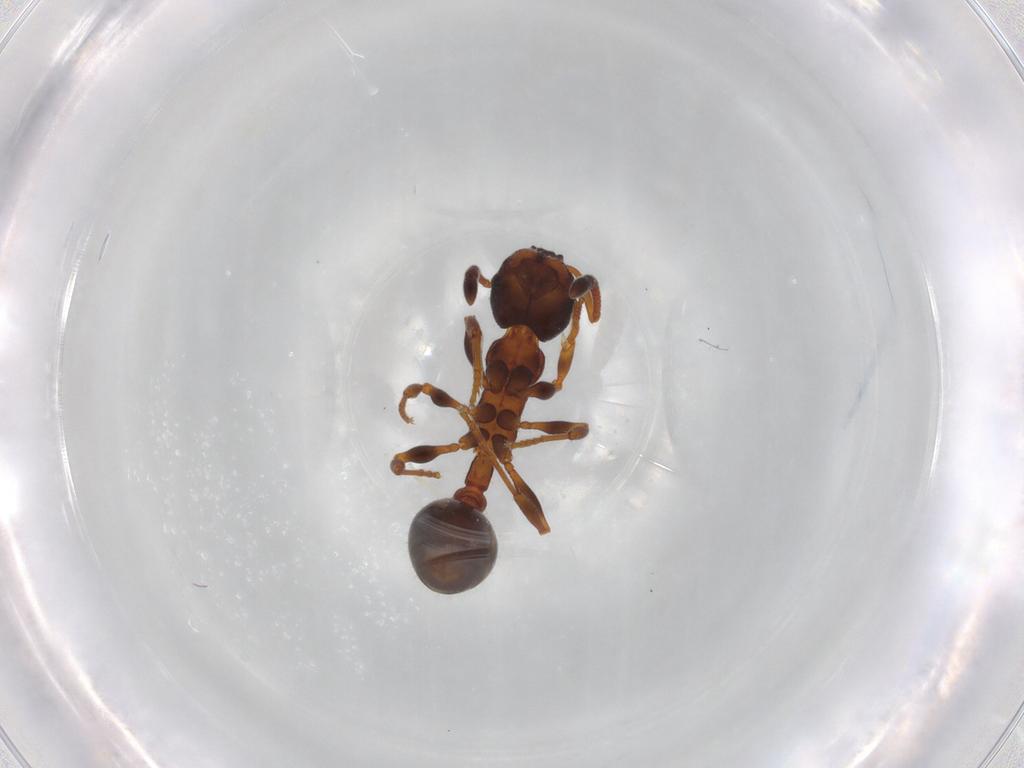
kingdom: Animalia
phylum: Arthropoda
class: Insecta
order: Hymenoptera
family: Formicidae
